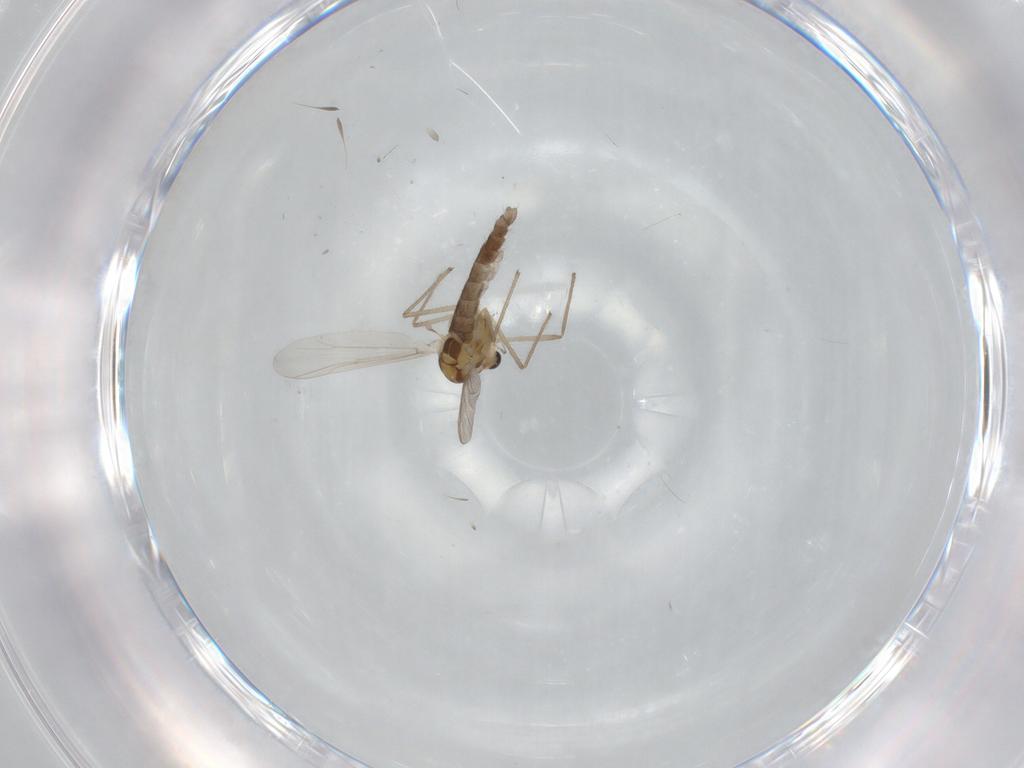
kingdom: Animalia
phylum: Arthropoda
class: Insecta
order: Diptera
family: Chironomidae
